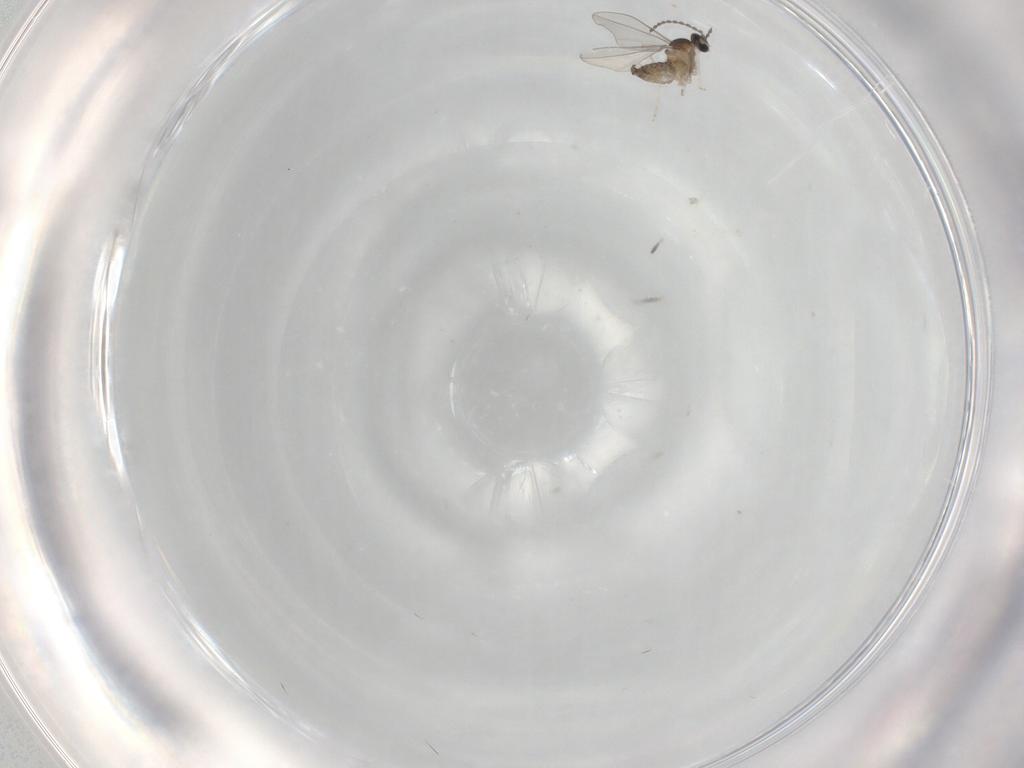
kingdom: Animalia
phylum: Arthropoda
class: Insecta
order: Diptera
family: Cecidomyiidae
